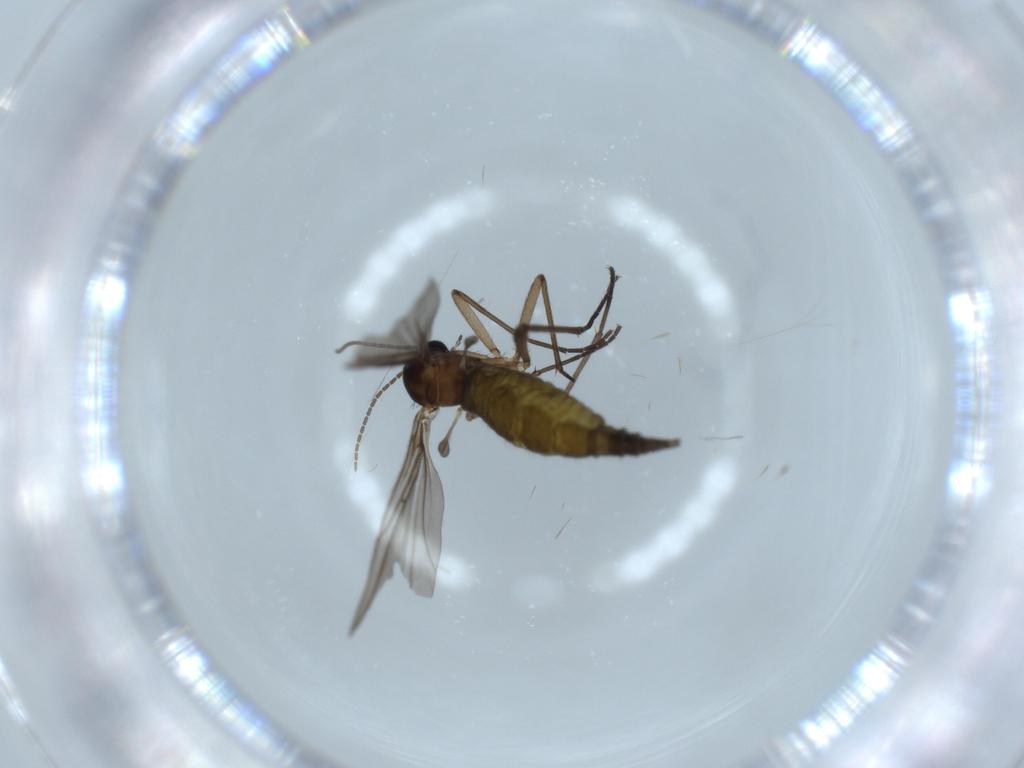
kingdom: Animalia
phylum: Arthropoda
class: Insecta
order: Diptera
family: Sciaridae
